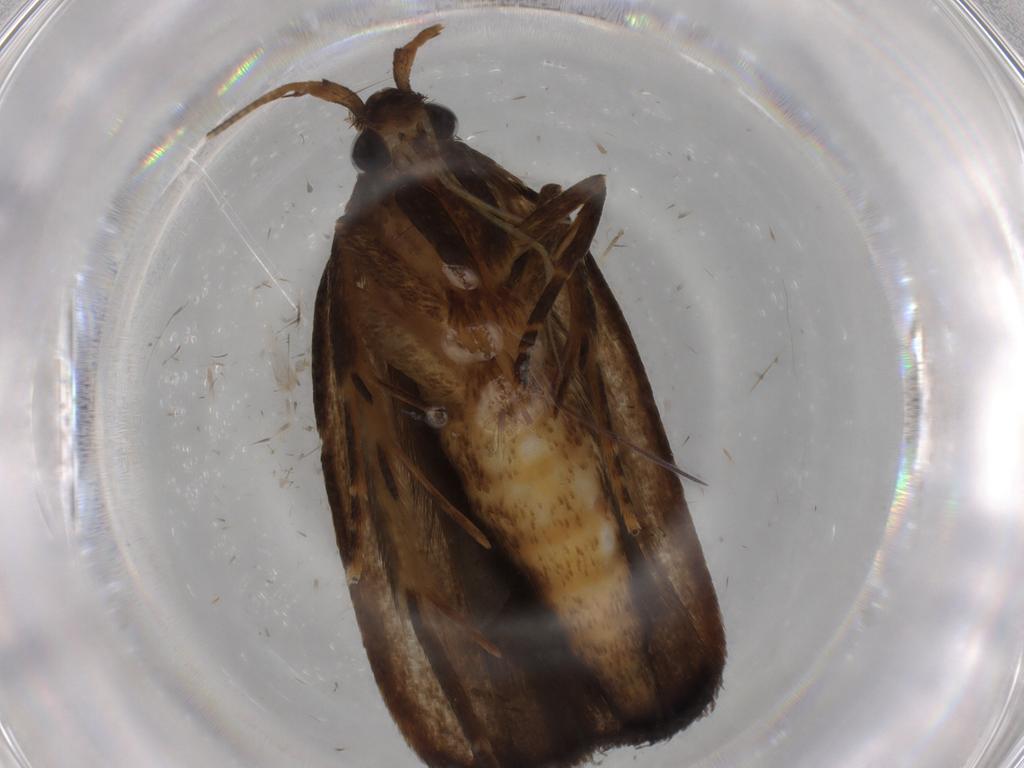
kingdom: Animalia
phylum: Arthropoda
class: Insecta
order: Lepidoptera
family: Autostichidae
